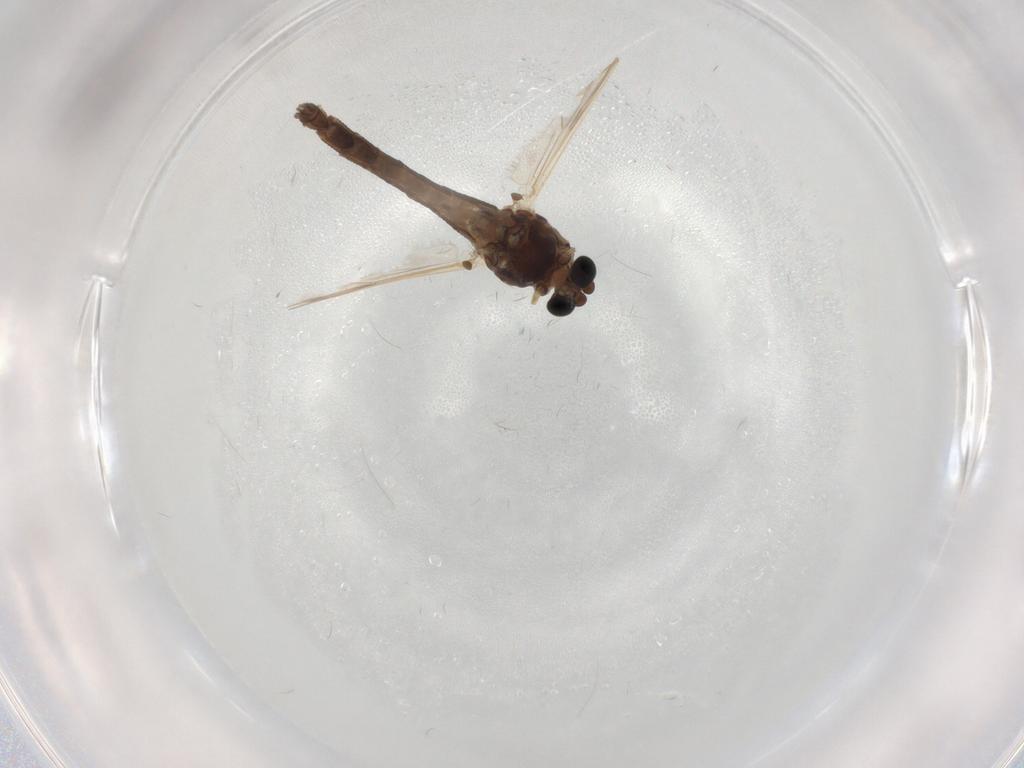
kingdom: Animalia
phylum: Arthropoda
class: Insecta
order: Diptera
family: Chironomidae
